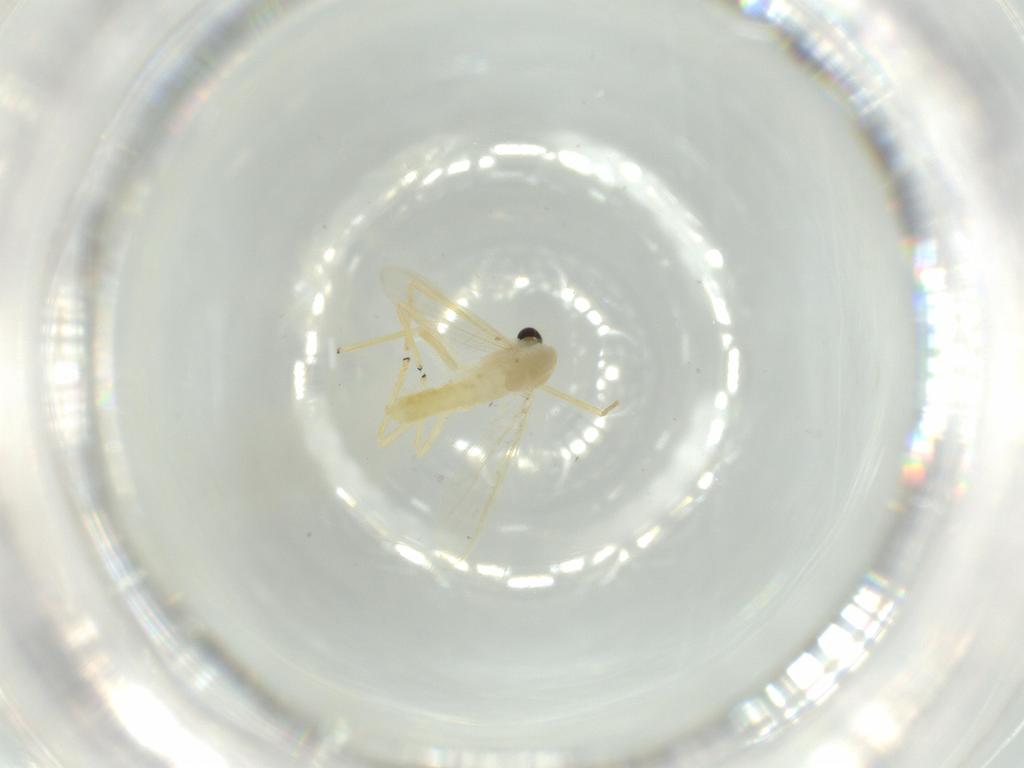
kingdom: Animalia
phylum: Arthropoda
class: Insecta
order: Diptera
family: Chironomidae
